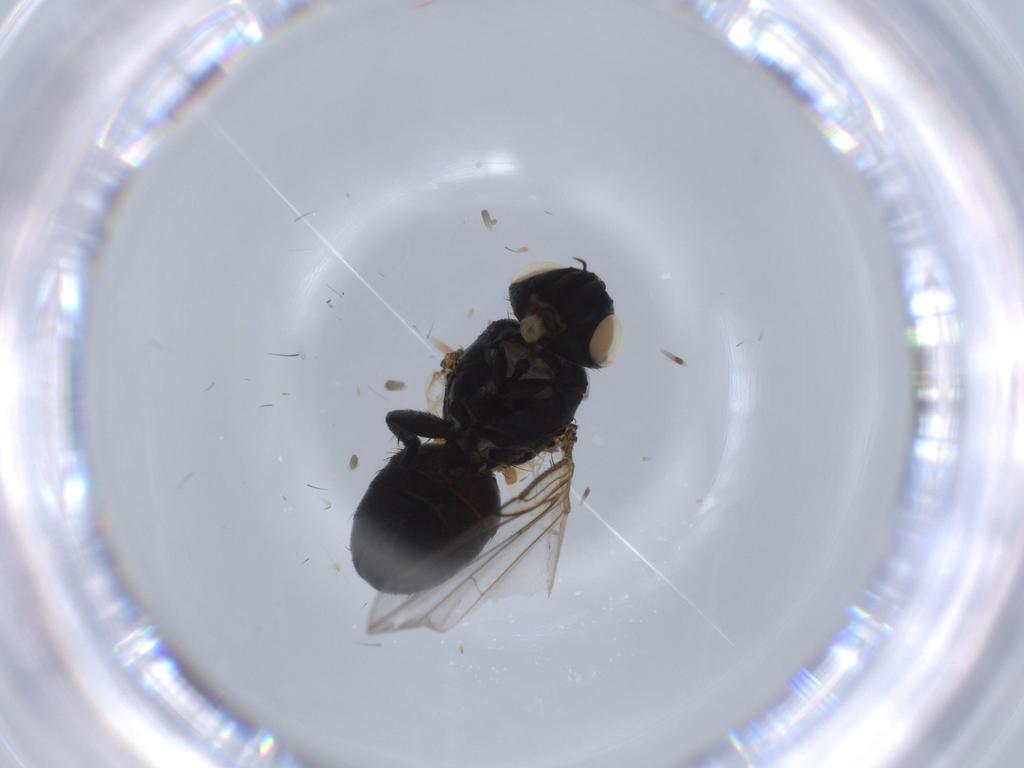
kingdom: Animalia
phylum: Arthropoda
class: Insecta
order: Diptera
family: Tachinidae
